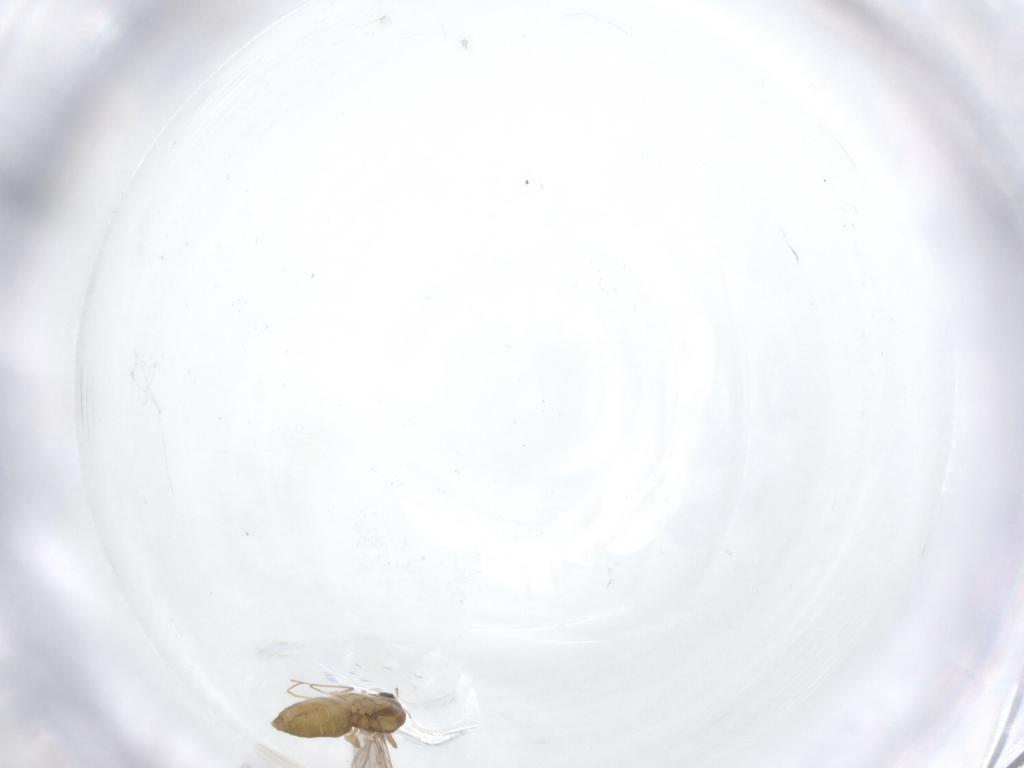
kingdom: Animalia
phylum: Arthropoda
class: Insecta
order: Diptera
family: Chironomidae
